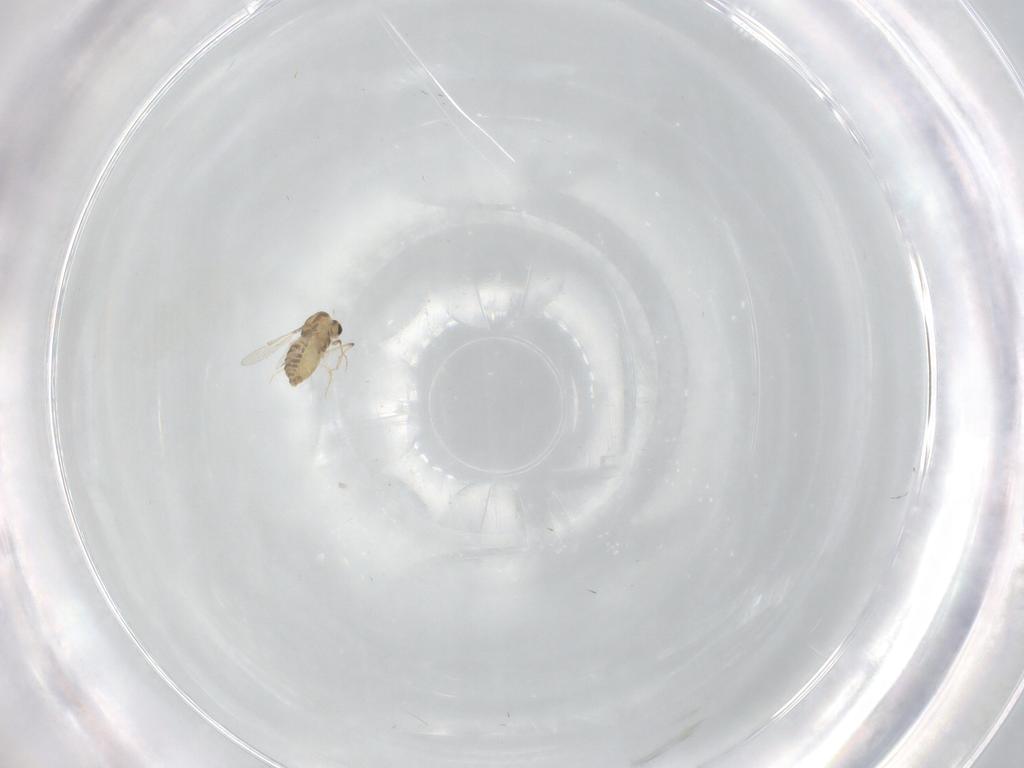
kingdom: Animalia
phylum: Arthropoda
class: Insecta
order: Diptera
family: Chironomidae
